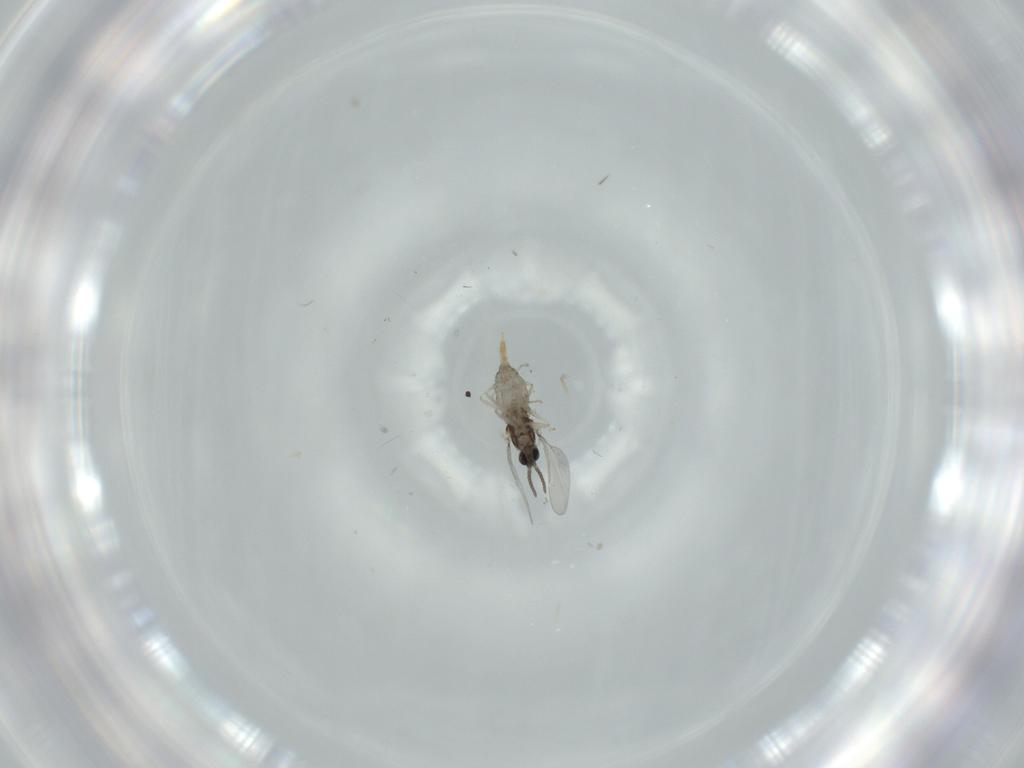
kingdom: Animalia
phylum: Arthropoda
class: Insecta
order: Diptera
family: Cecidomyiidae
